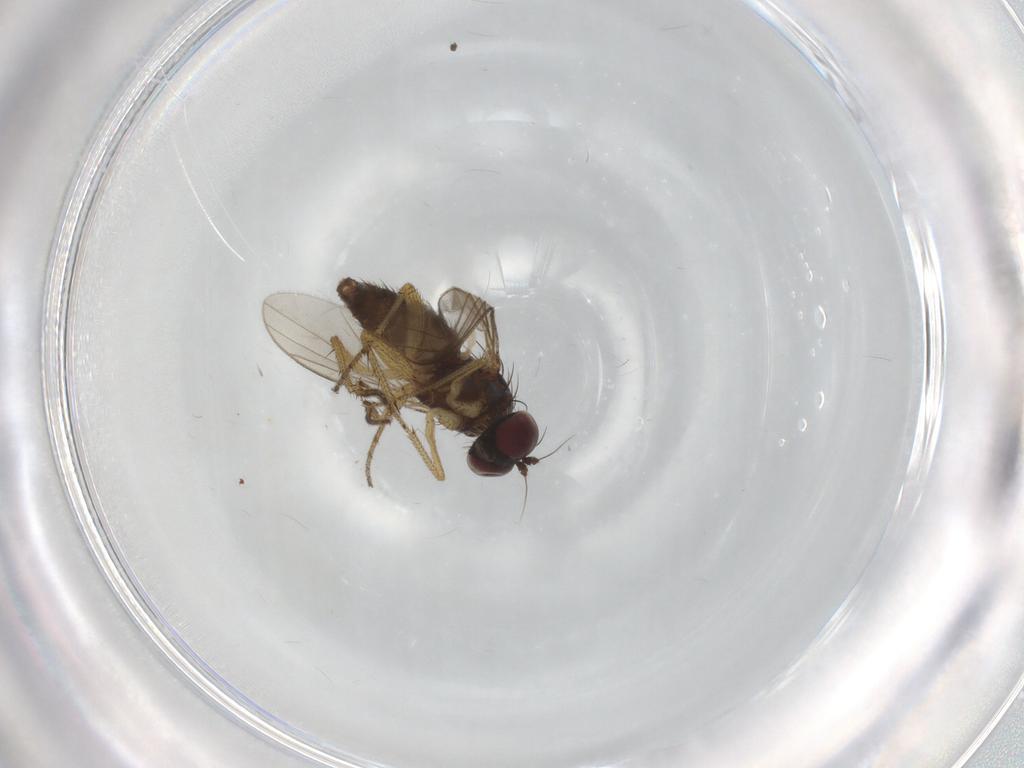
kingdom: Animalia
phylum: Arthropoda
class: Insecta
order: Diptera
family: Dolichopodidae
